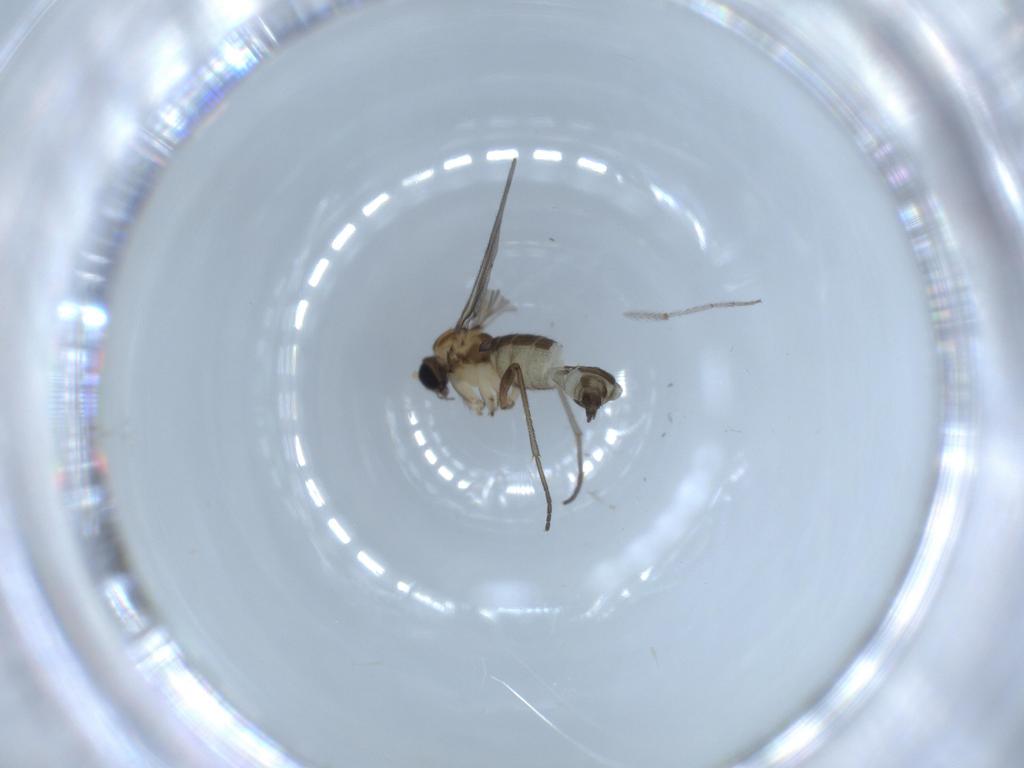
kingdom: Animalia
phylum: Arthropoda
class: Insecta
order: Diptera
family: Sciaridae
